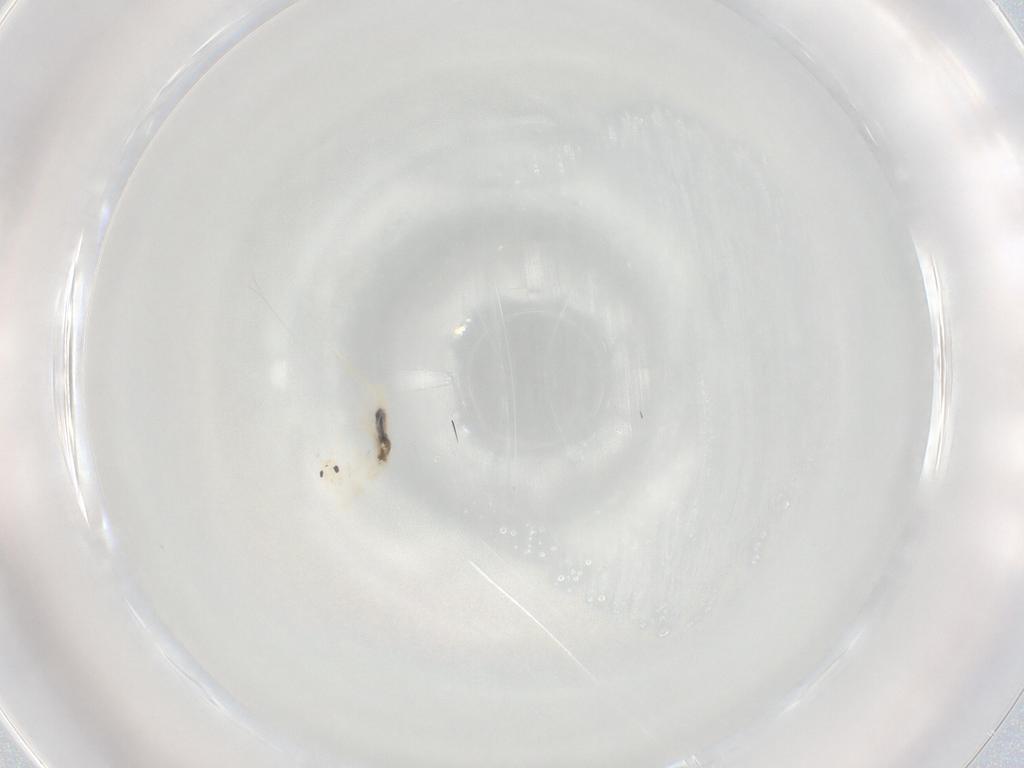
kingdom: Animalia
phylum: Arthropoda
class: Collembola
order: Entomobryomorpha
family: Entomobryidae
